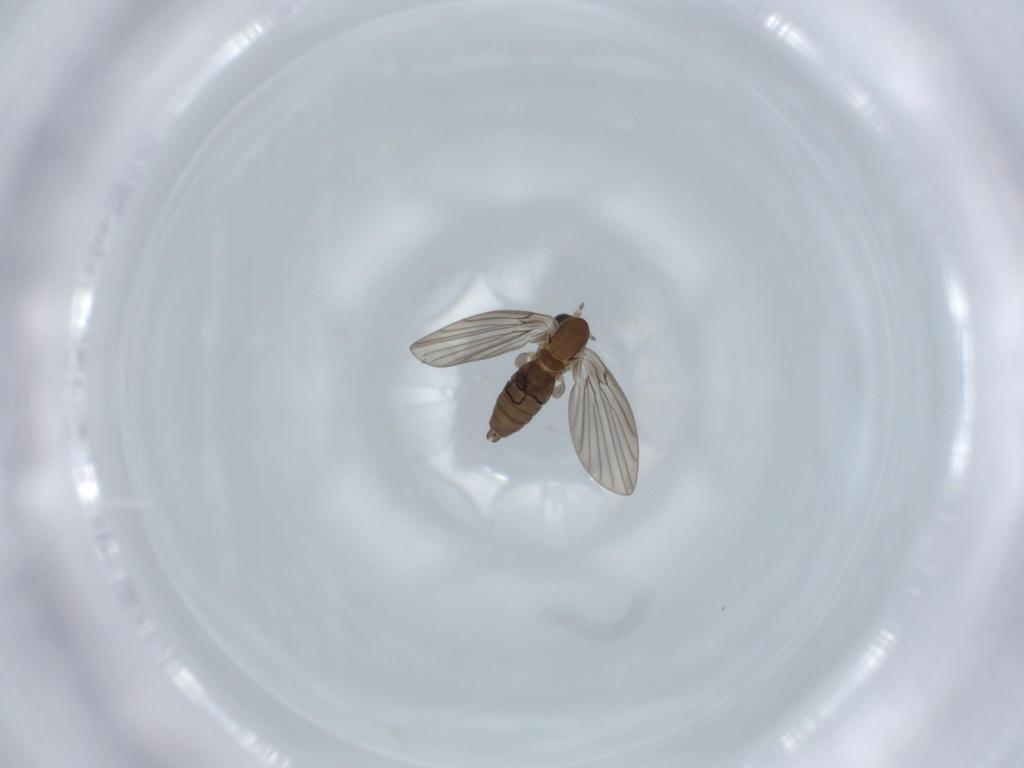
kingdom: Animalia
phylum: Arthropoda
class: Insecta
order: Diptera
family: Psychodidae
